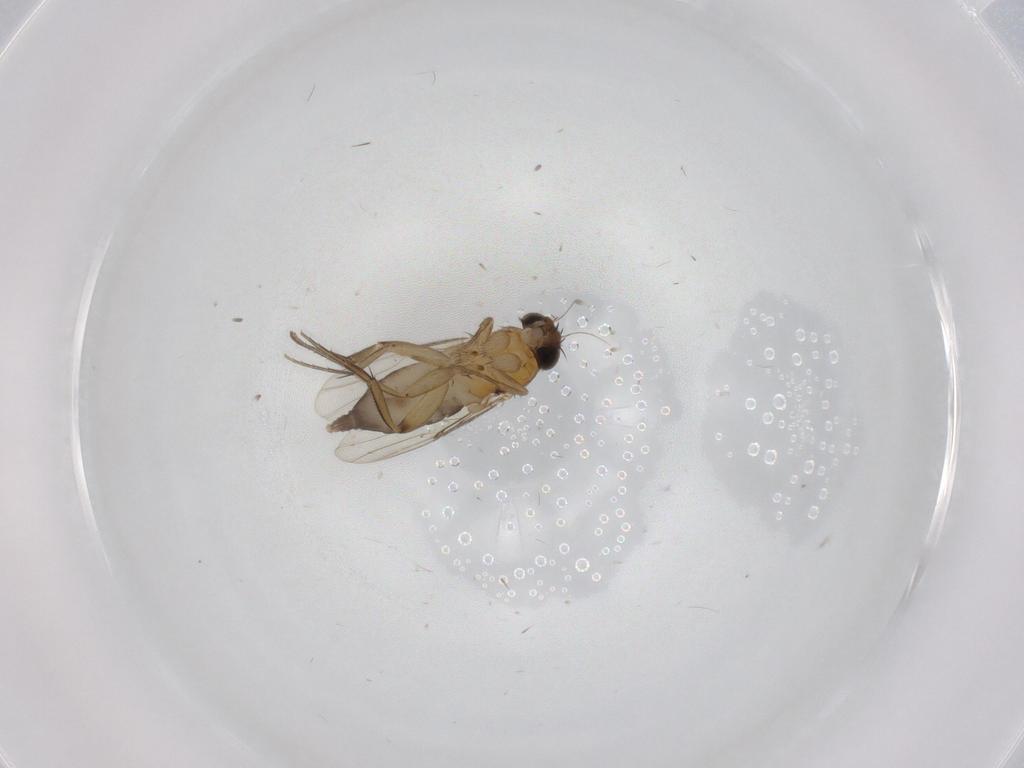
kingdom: Animalia
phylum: Arthropoda
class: Insecta
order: Diptera
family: Phoridae
